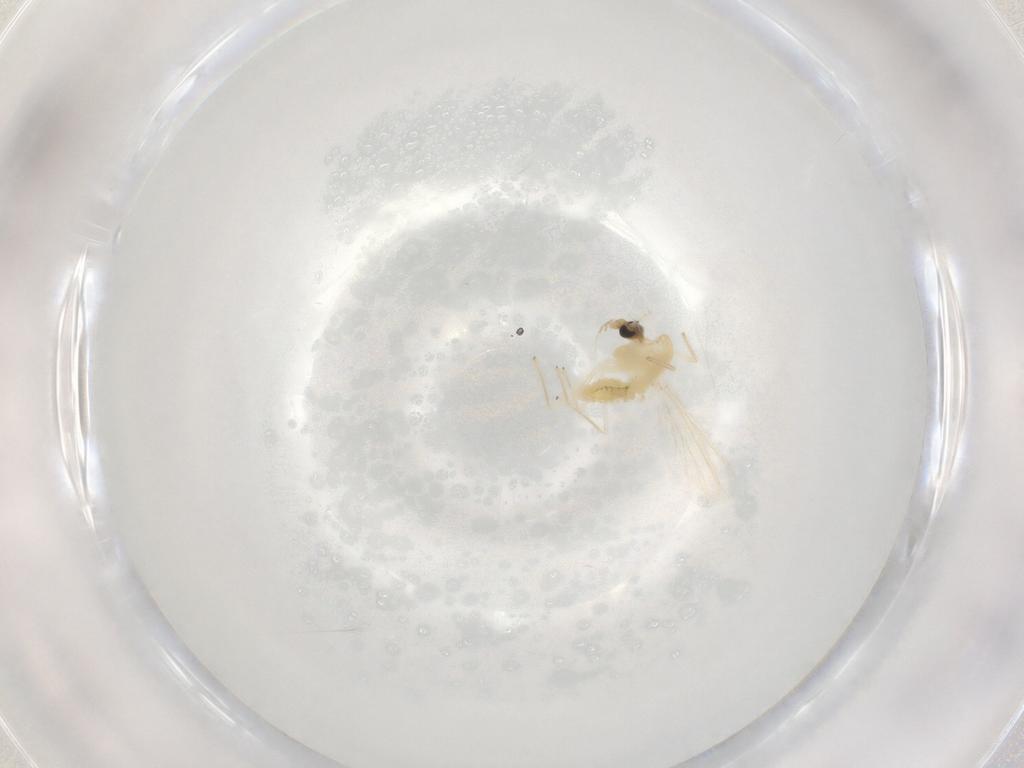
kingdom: Animalia
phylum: Arthropoda
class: Insecta
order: Diptera
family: Chironomidae
